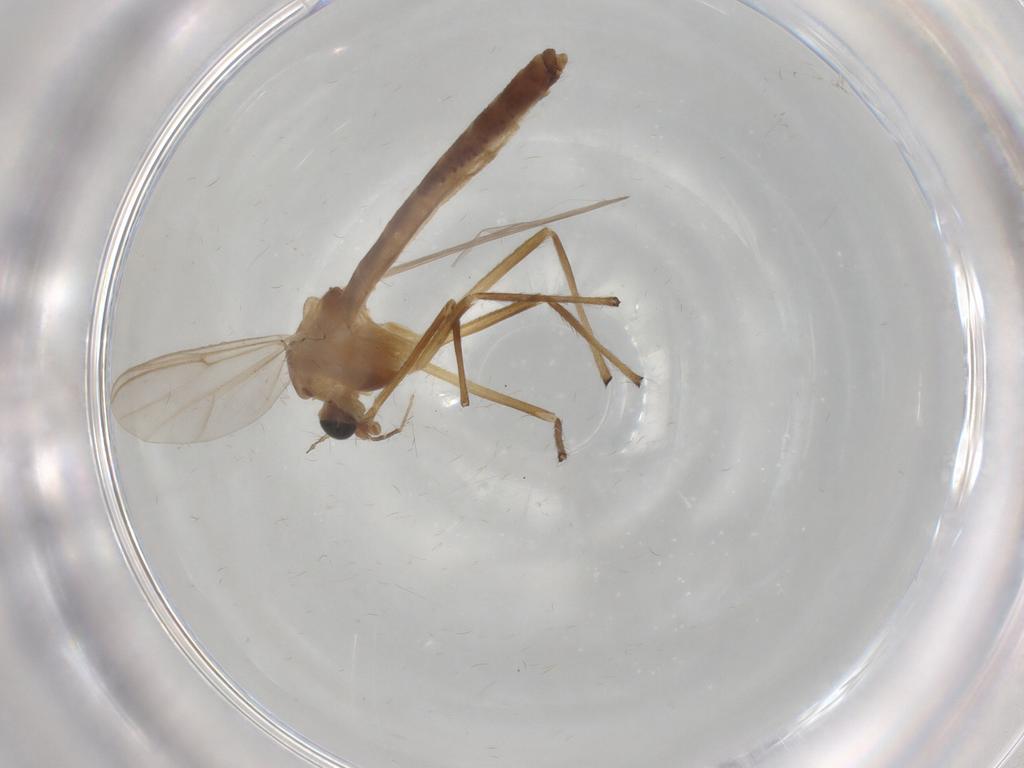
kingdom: Animalia
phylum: Arthropoda
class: Insecta
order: Diptera
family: Chironomidae
